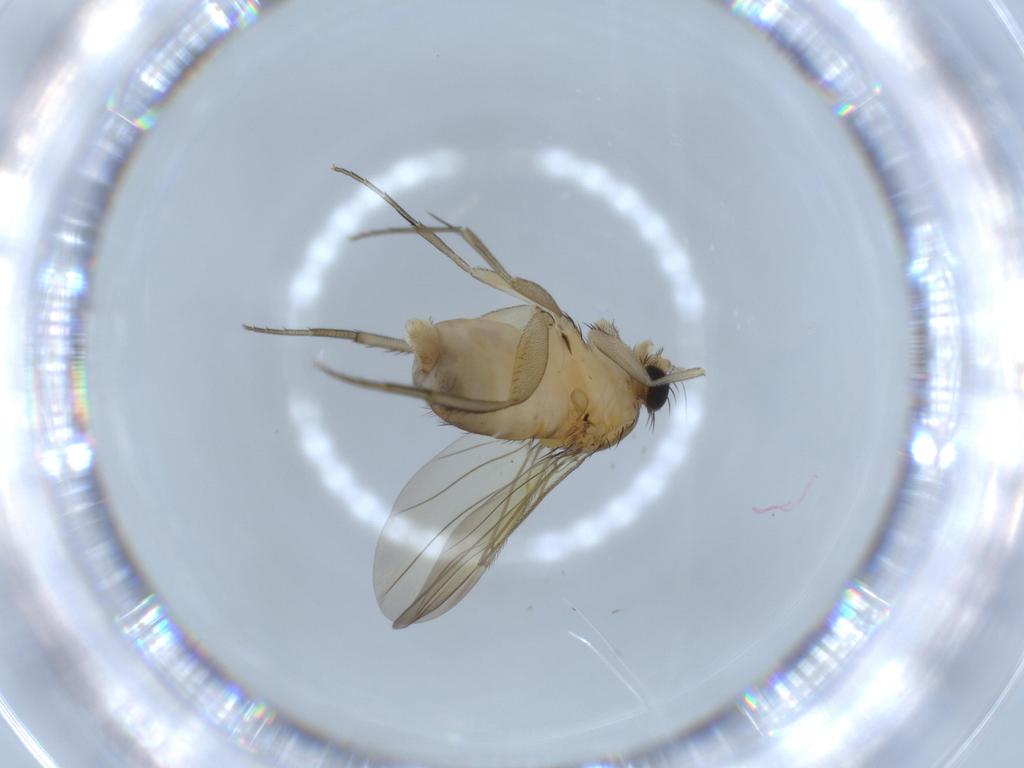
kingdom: Animalia
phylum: Arthropoda
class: Insecta
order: Diptera
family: Phoridae
